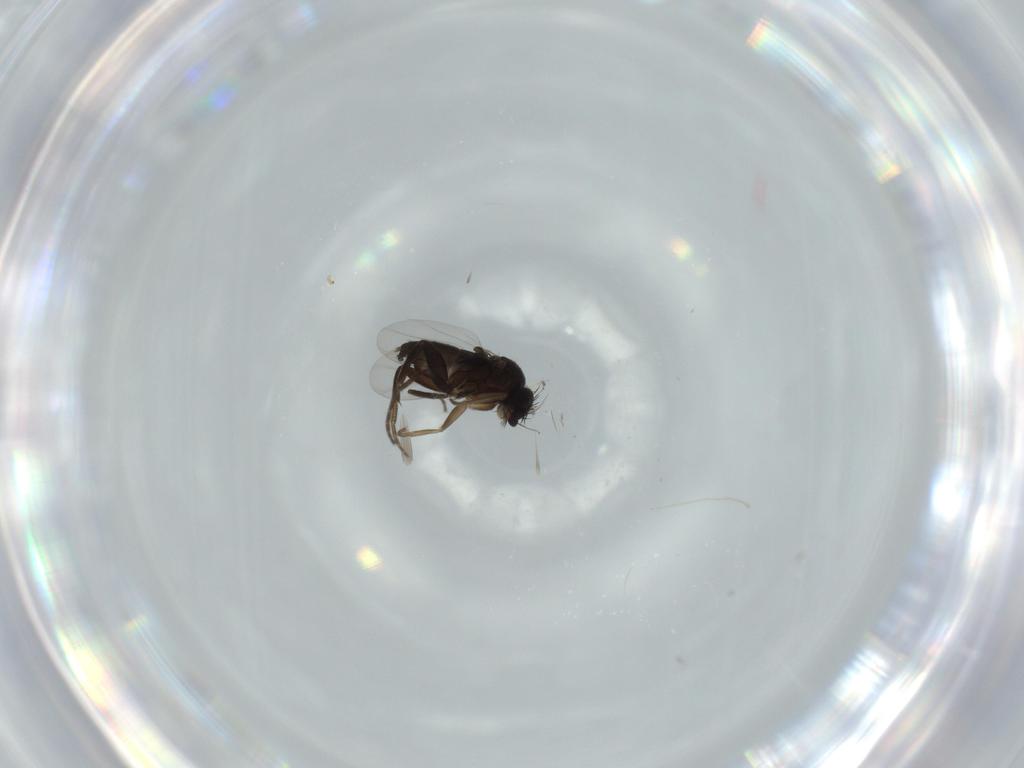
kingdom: Animalia
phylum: Arthropoda
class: Insecta
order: Diptera
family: Phoridae
